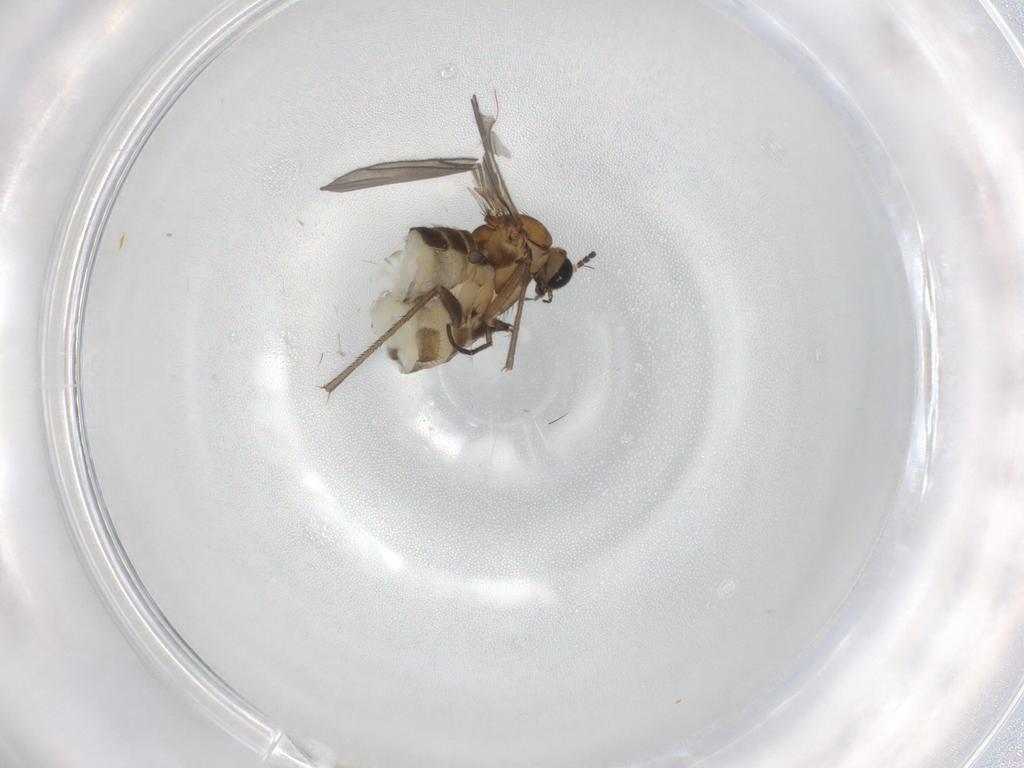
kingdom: Animalia
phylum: Arthropoda
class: Insecta
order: Diptera
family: Sciaridae
